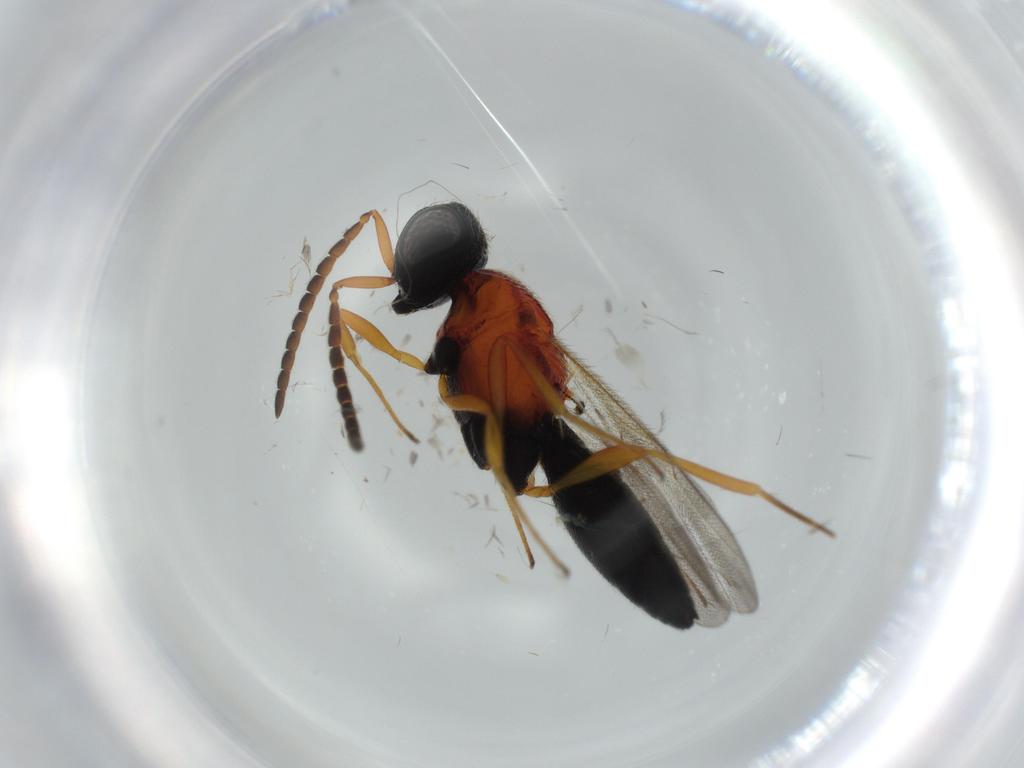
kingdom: Animalia
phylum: Arthropoda
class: Insecta
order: Hymenoptera
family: Scelionidae
